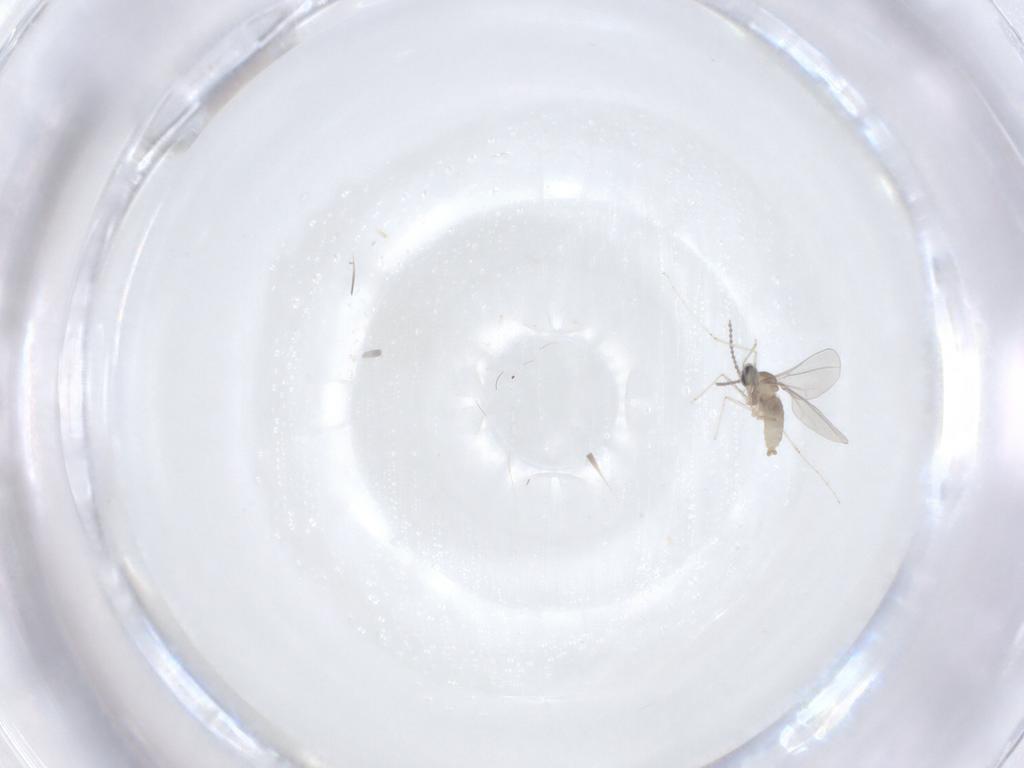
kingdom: Animalia
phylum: Arthropoda
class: Insecta
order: Diptera
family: Cecidomyiidae
